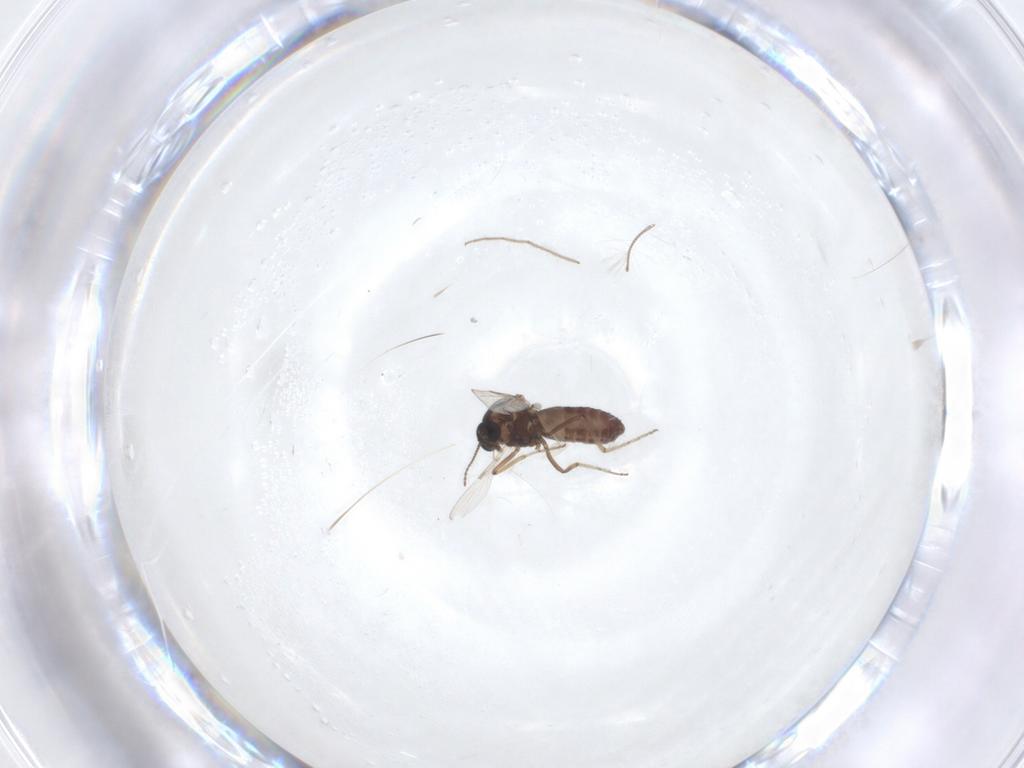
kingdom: Animalia
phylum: Arthropoda
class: Insecta
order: Diptera
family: Ceratopogonidae
